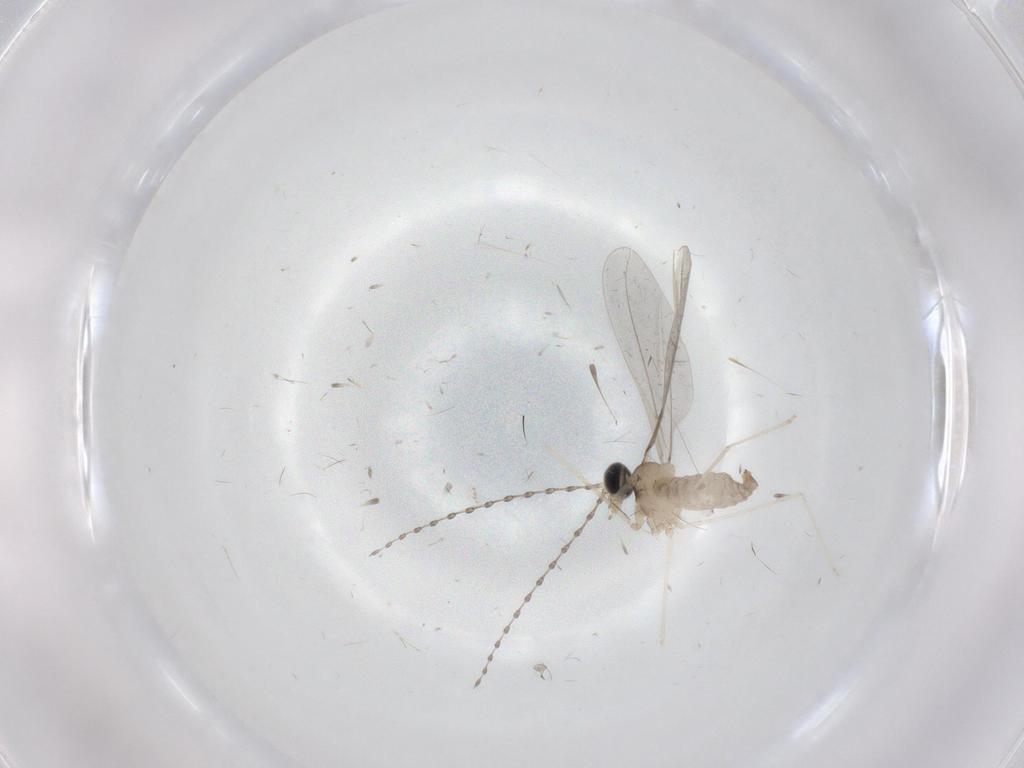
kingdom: Animalia
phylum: Arthropoda
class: Insecta
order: Diptera
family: Cecidomyiidae
